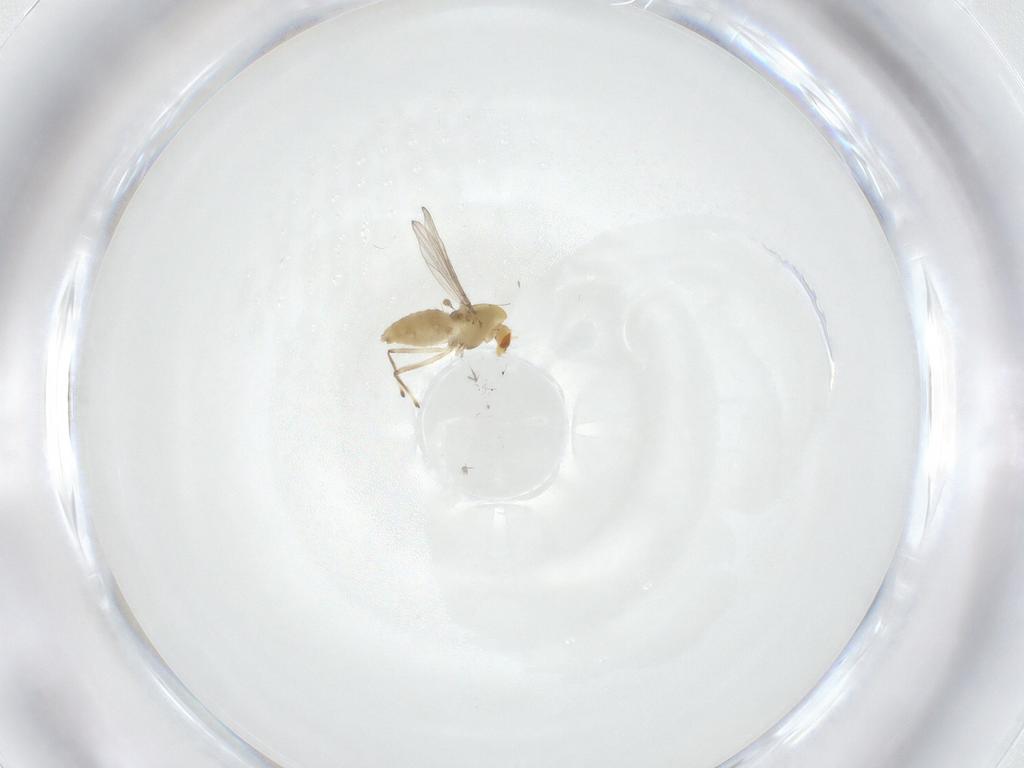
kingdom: Animalia
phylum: Arthropoda
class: Insecta
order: Diptera
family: Chironomidae
